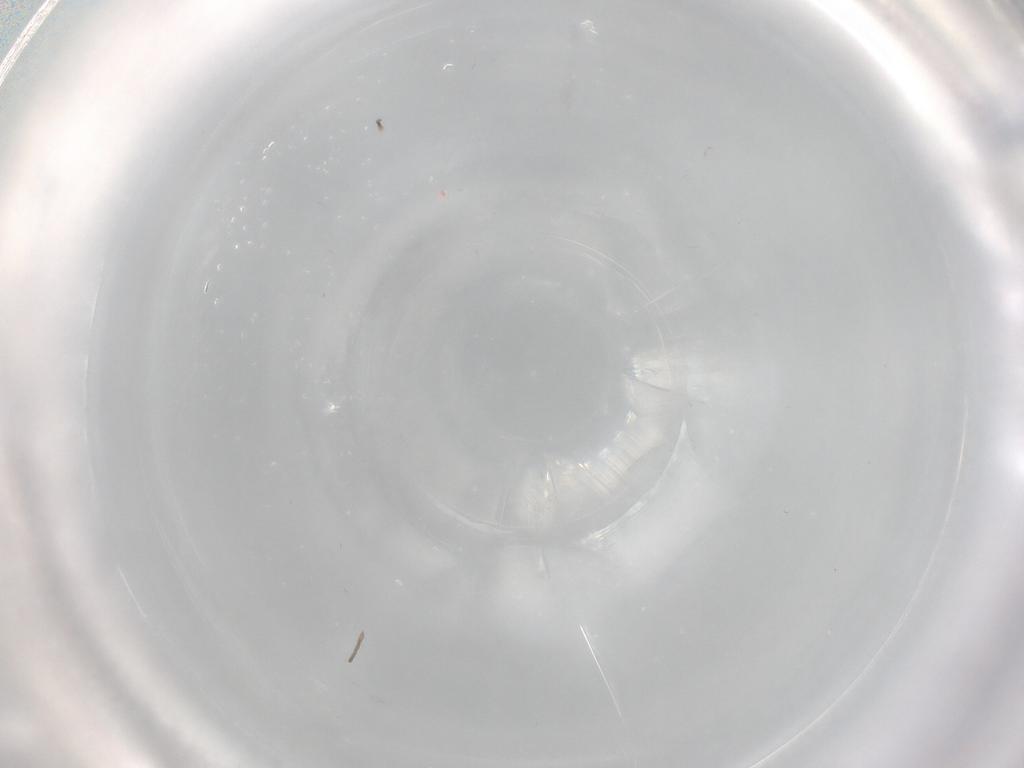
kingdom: Animalia
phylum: Arthropoda
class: Insecta
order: Diptera
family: Psychodidae
